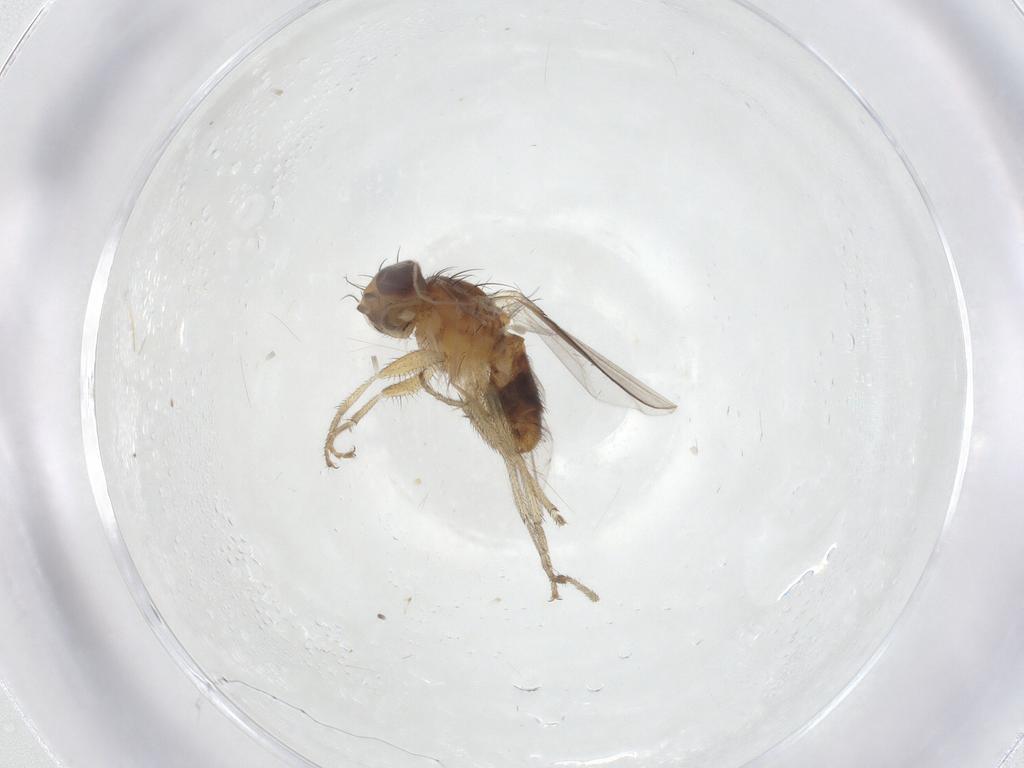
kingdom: Animalia
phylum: Arthropoda
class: Insecta
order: Diptera
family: Heleomyzidae
